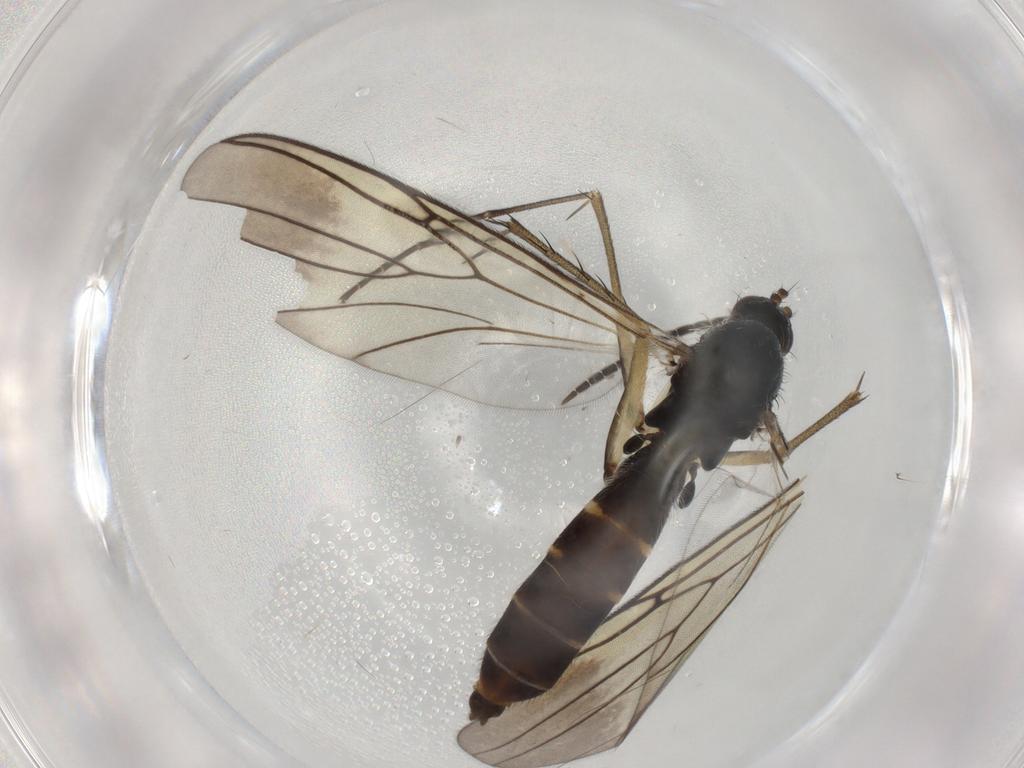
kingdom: Animalia
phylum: Arthropoda
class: Insecta
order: Diptera
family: Mycetophilidae
